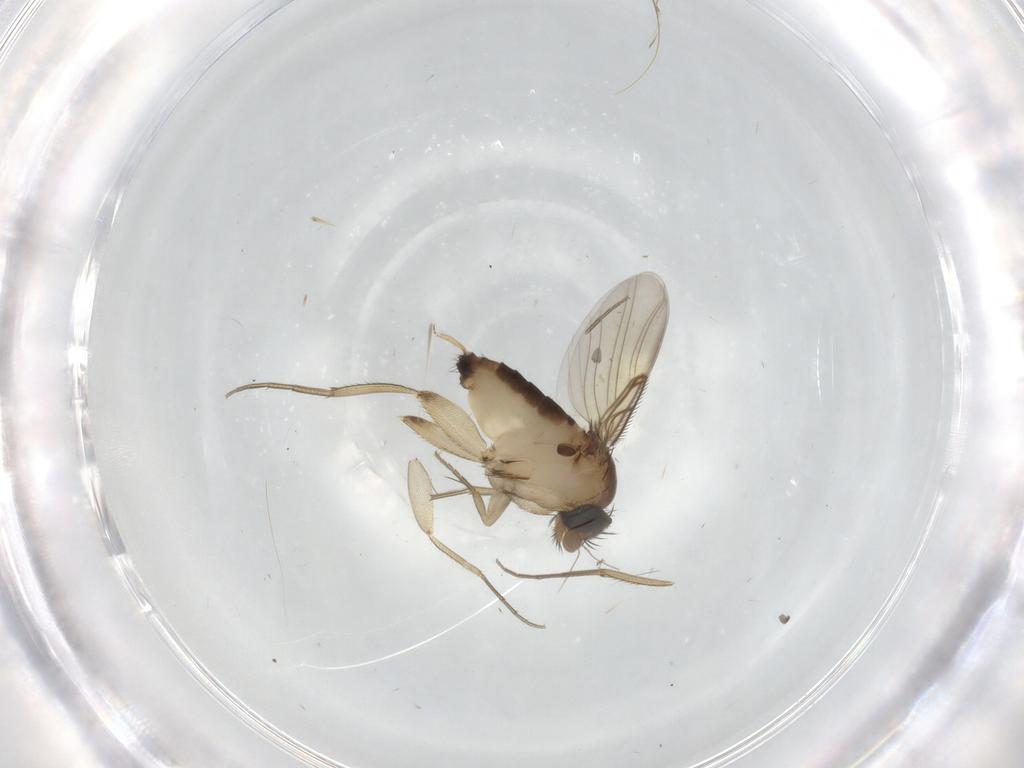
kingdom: Animalia
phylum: Arthropoda
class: Insecta
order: Diptera
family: Phoridae
